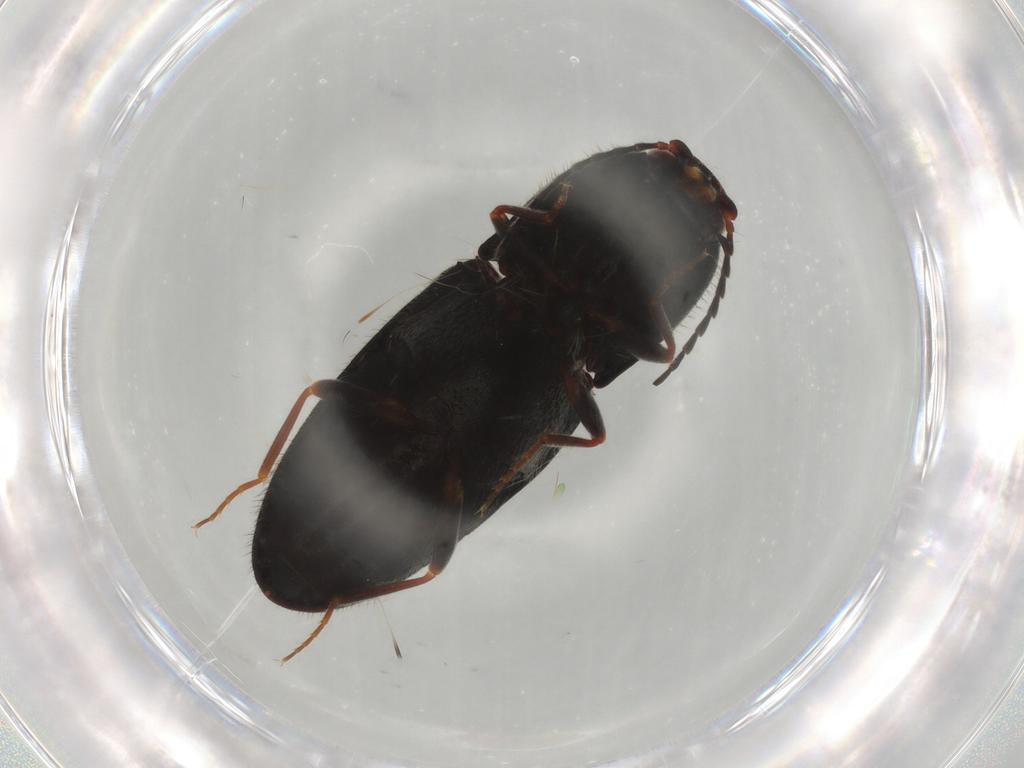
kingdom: Animalia
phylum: Arthropoda
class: Insecta
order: Coleoptera
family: Elateridae
